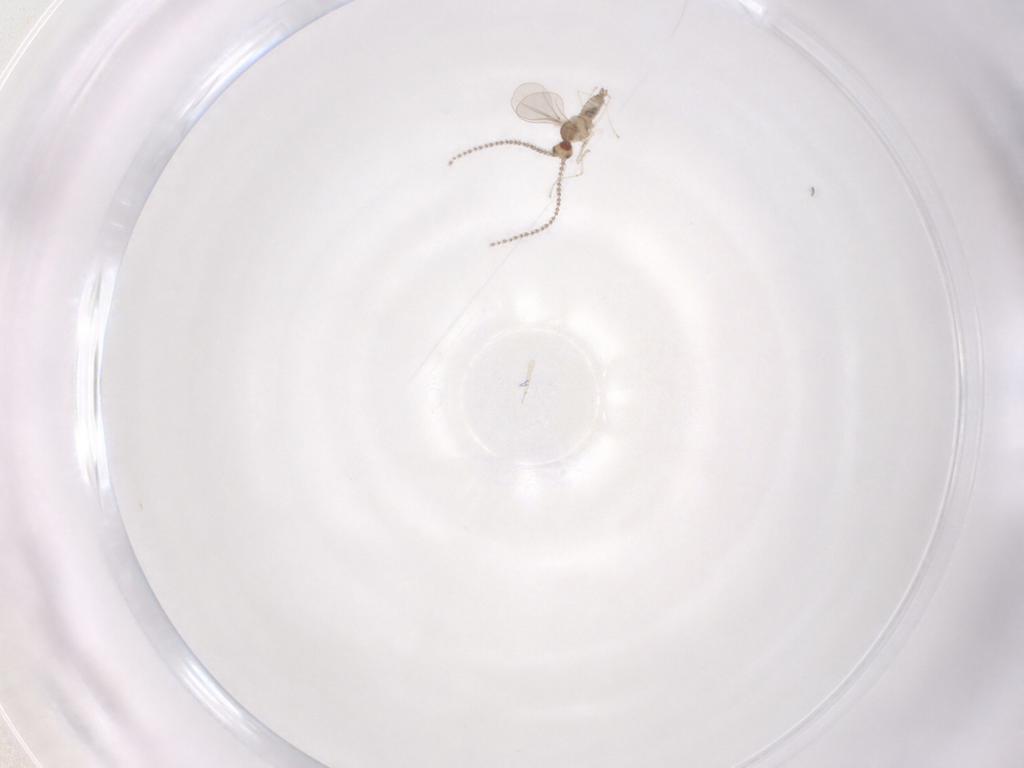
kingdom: Animalia
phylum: Arthropoda
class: Insecta
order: Diptera
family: Cecidomyiidae
